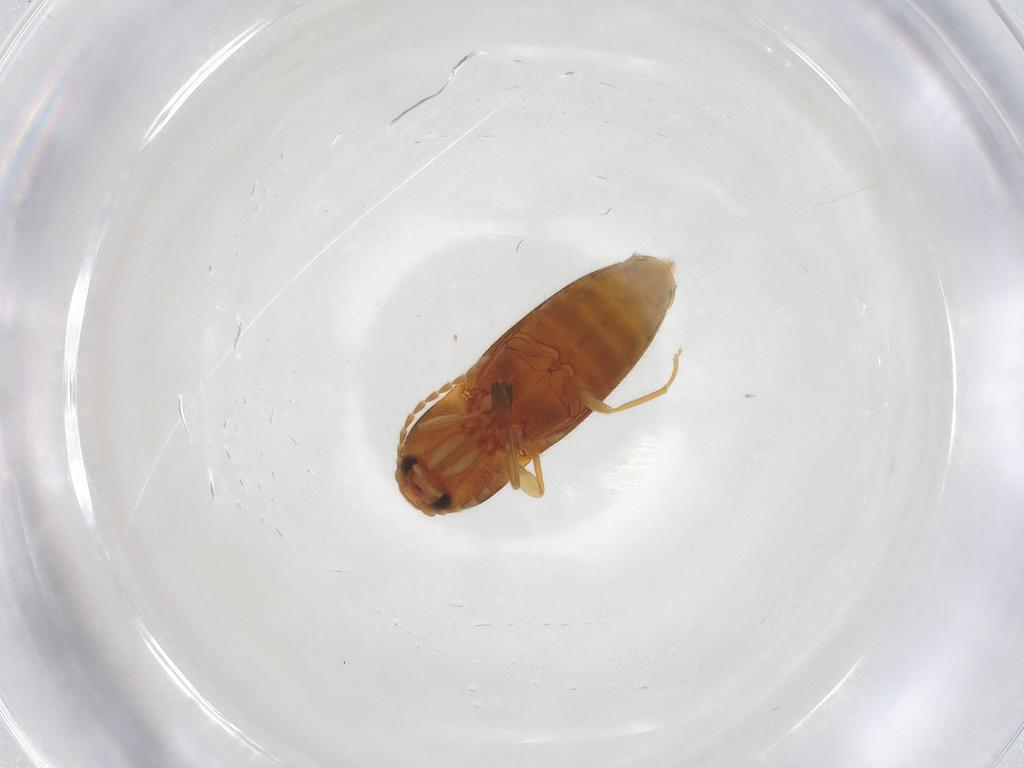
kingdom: Animalia
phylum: Arthropoda
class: Insecta
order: Coleoptera
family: Elateridae
